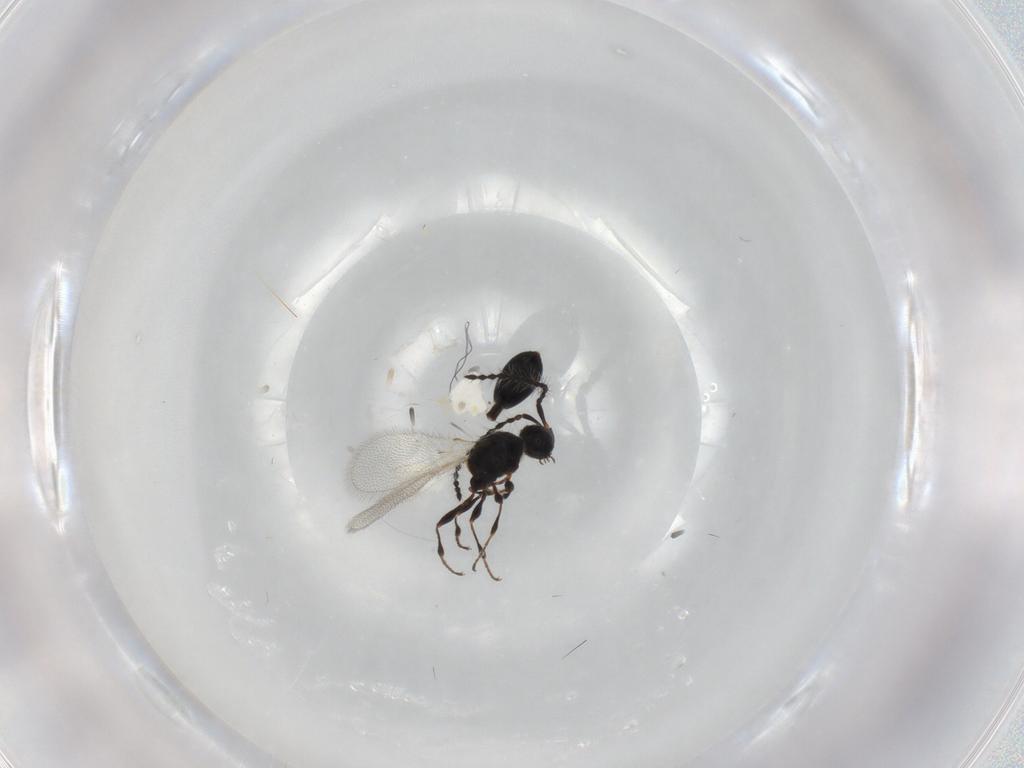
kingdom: Animalia
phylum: Arthropoda
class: Insecta
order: Hymenoptera
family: Diapriidae
